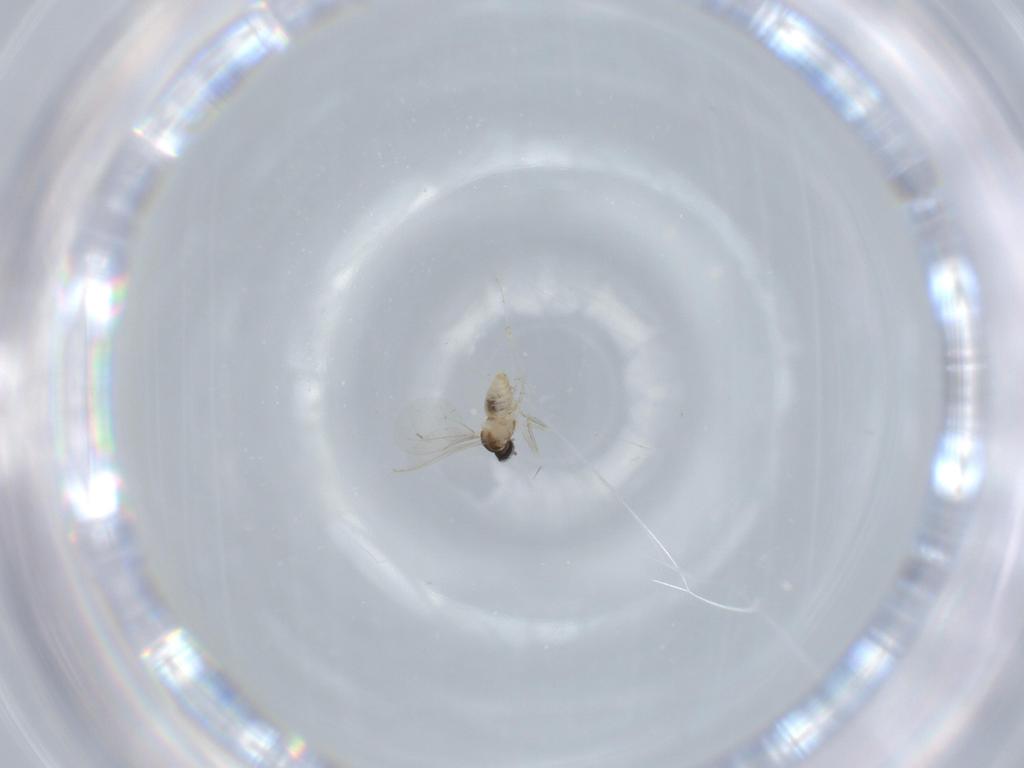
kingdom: Animalia
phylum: Arthropoda
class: Insecta
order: Diptera
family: Cecidomyiidae
